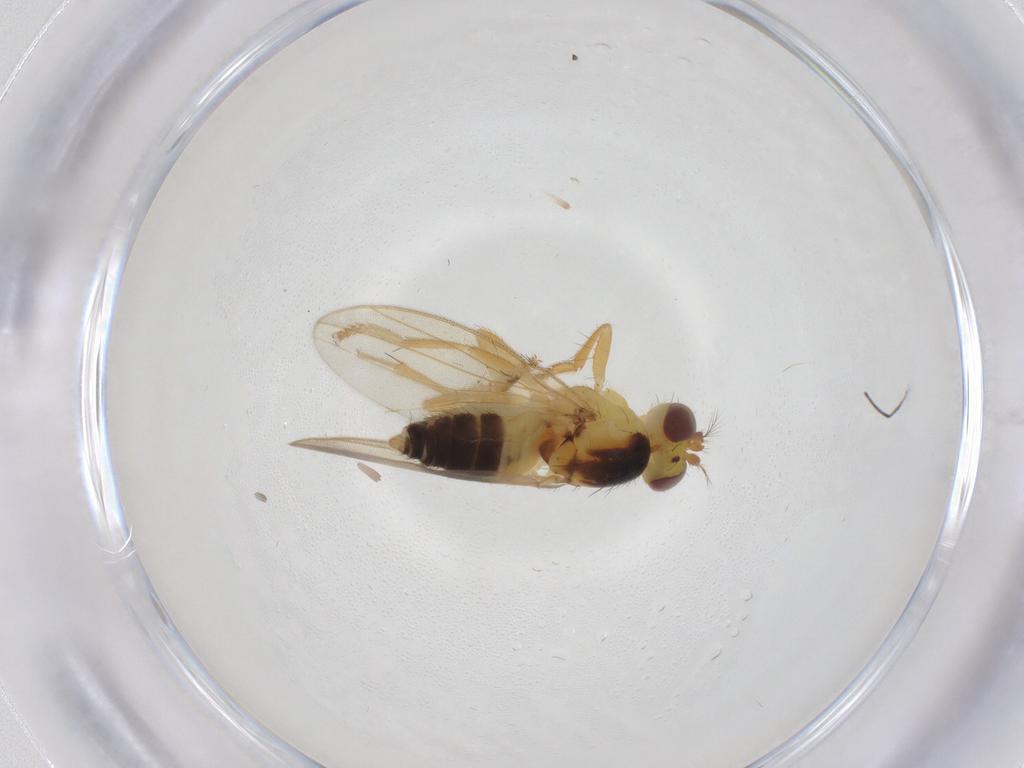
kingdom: Animalia
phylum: Arthropoda
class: Insecta
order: Diptera
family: Periscelididae
